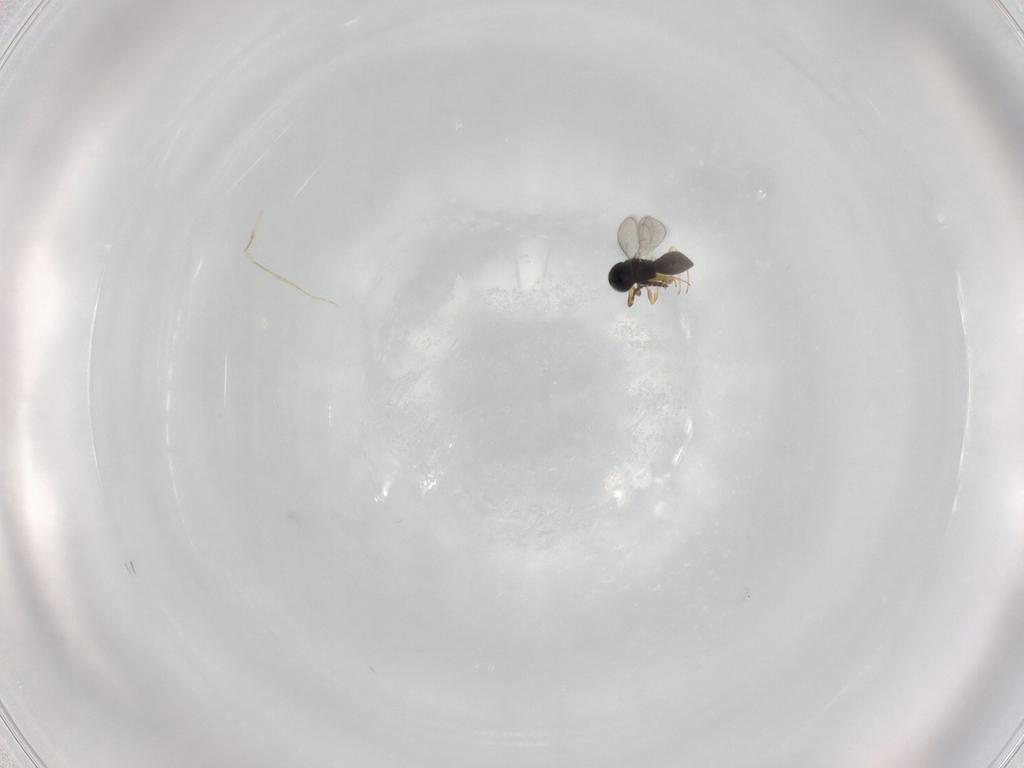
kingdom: Animalia
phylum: Arthropoda
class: Insecta
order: Hymenoptera
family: Scelionidae
